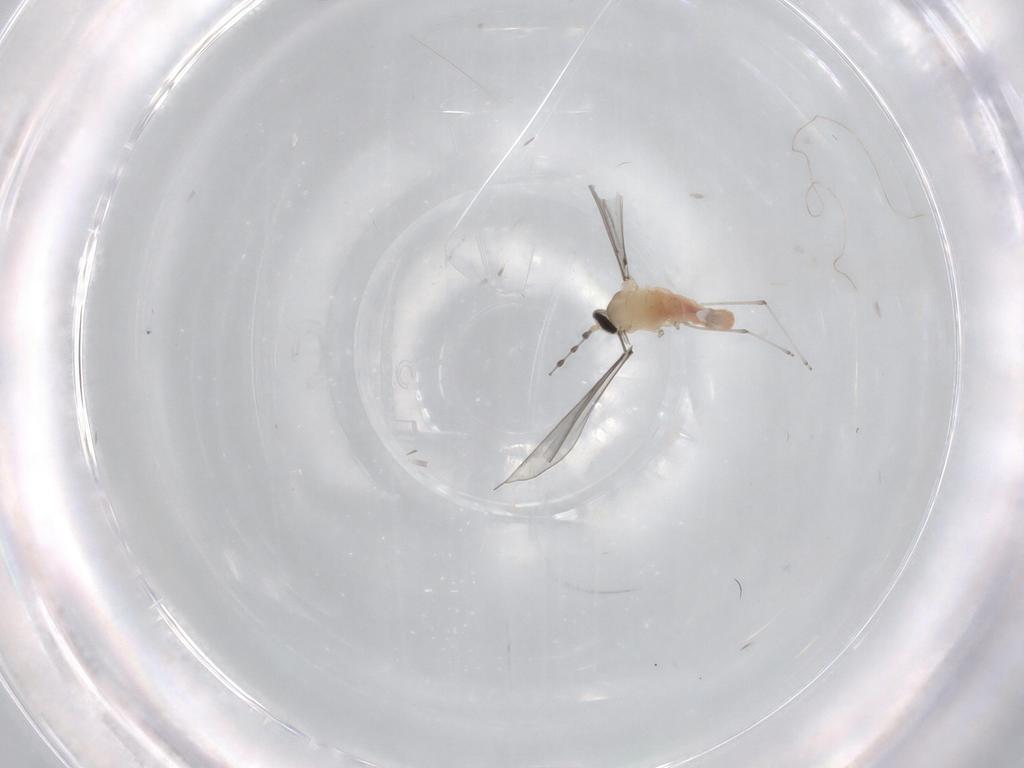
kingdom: Animalia
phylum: Arthropoda
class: Insecta
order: Diptera
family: Cecidomyiidae
